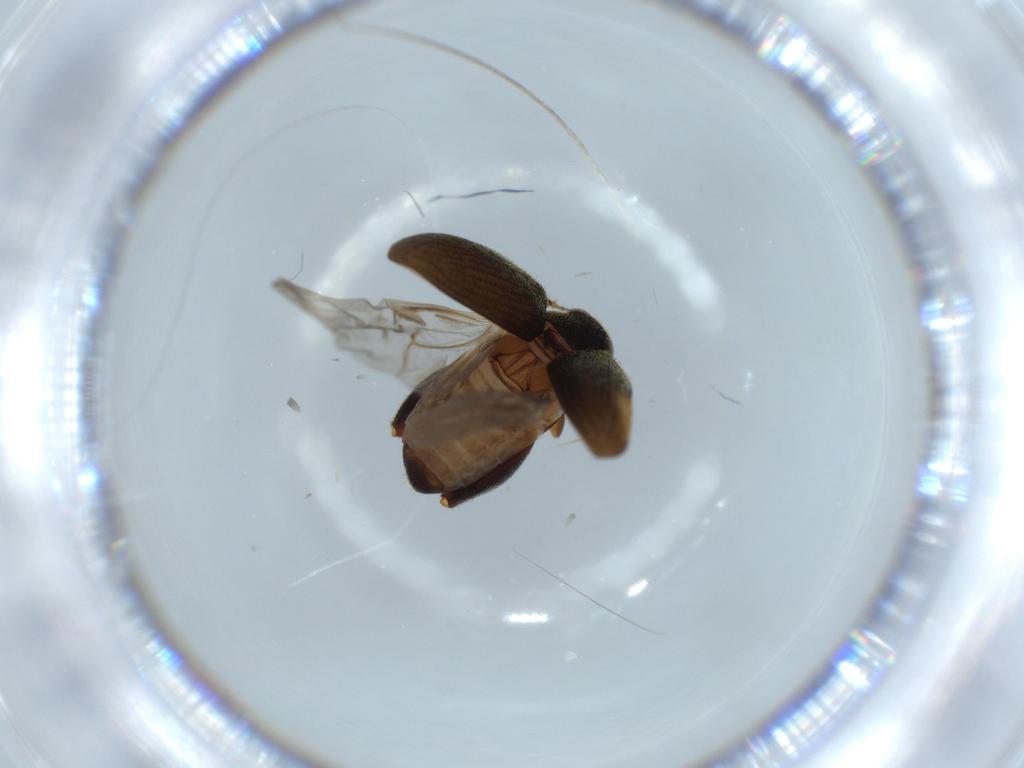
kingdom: Animalia
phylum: Arthropoda
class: Insecta
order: Coleoptera
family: Chrysomelidae
